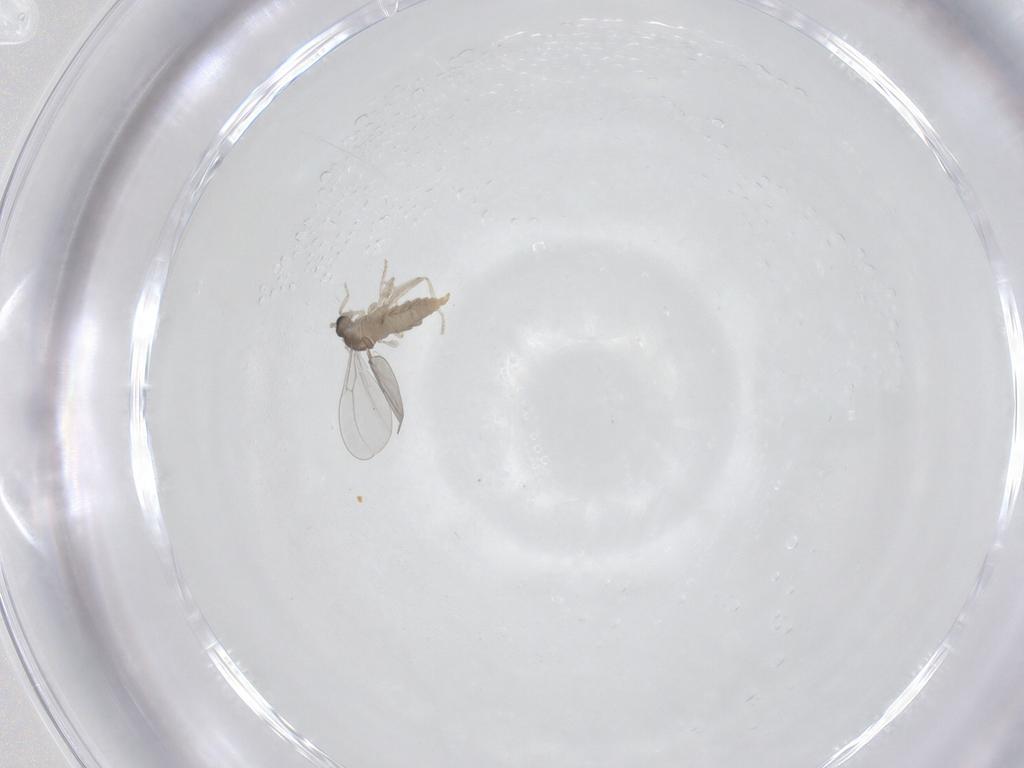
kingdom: Animalia
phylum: Arthropoda
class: Insecta
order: Diptera
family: Cecidomyiidae
